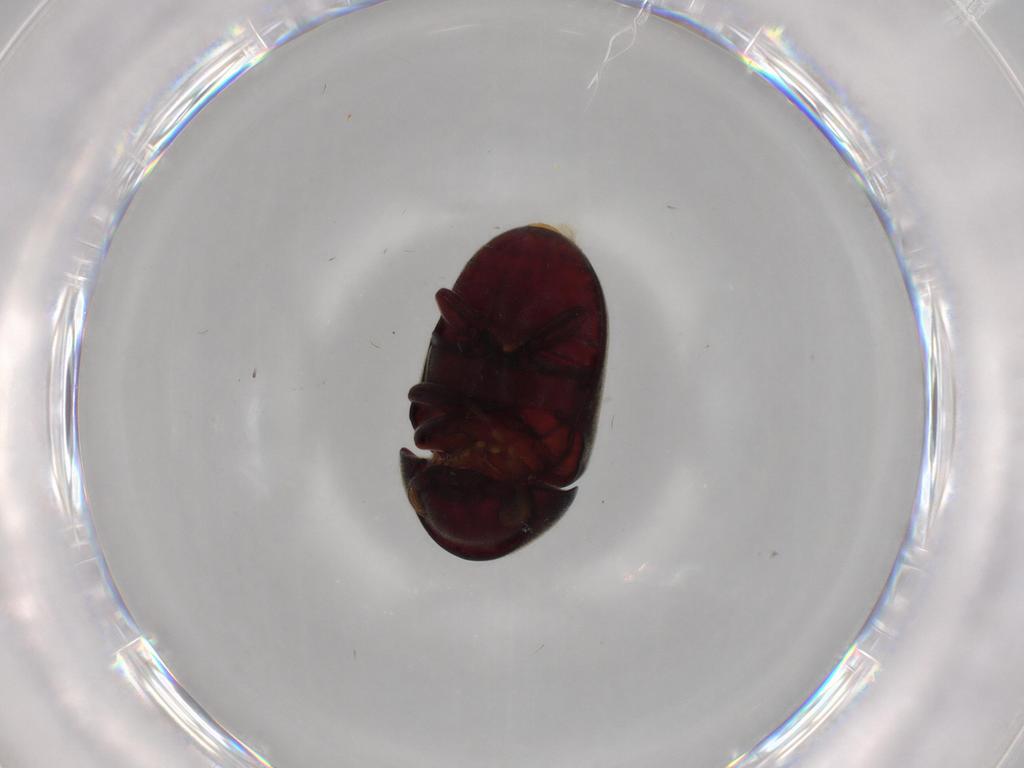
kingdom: Animalia
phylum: Arthropoda
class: Insecta
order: Coleoptera
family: Ptinidae
